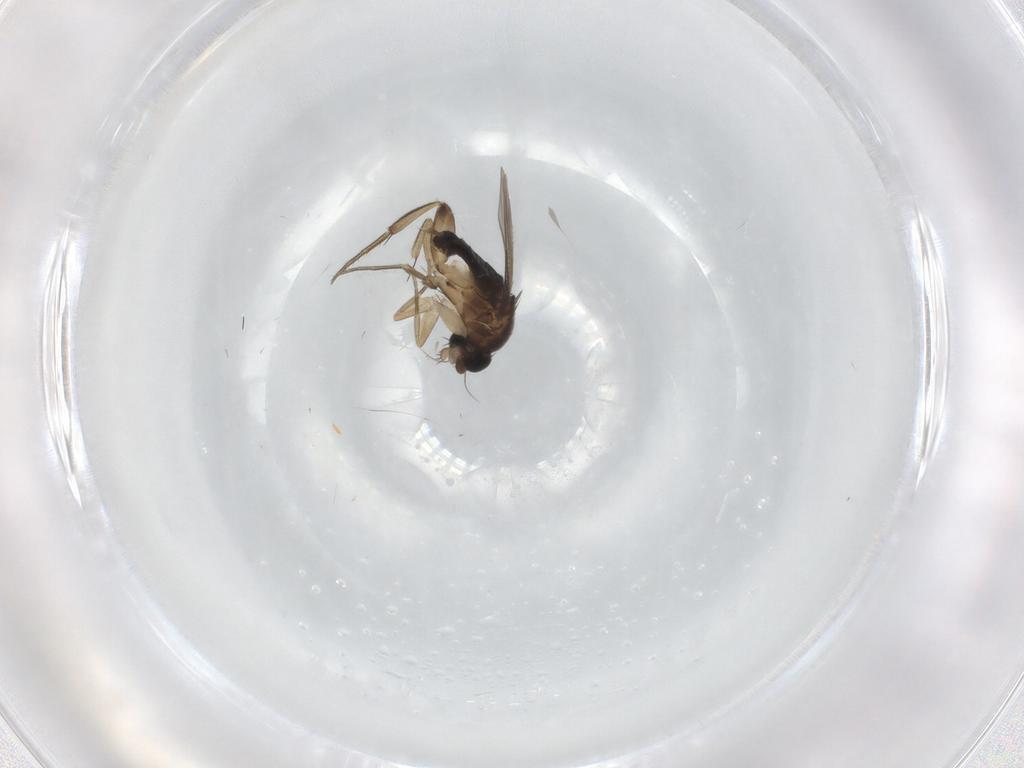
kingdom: Animalia
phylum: Arthropoda
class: Insecta
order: Diptera
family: Phoridae
